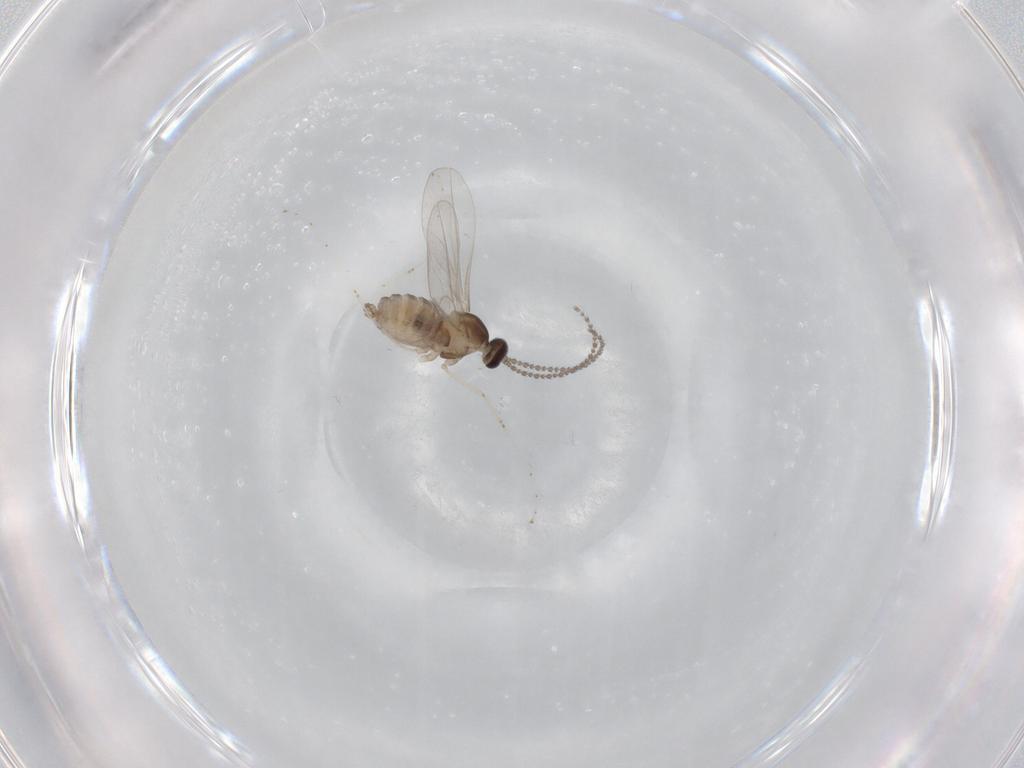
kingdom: Animalia
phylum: Arthropoda
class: Insecta
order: Diptera
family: Cecidomyiidae
